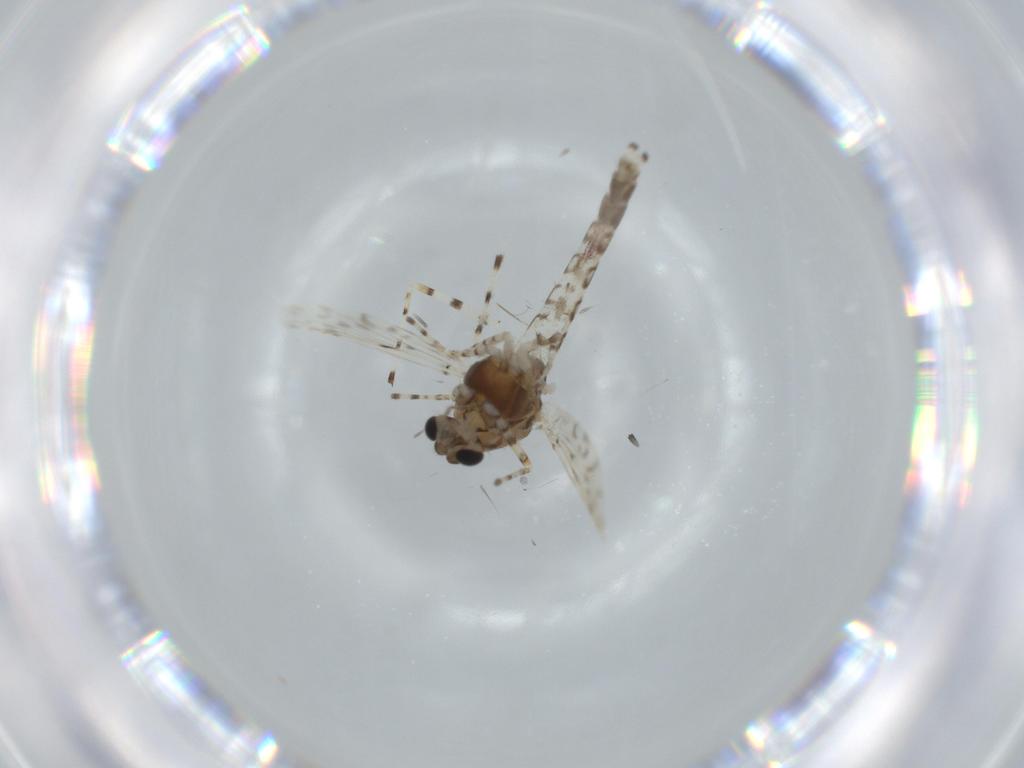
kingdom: Animalia
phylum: Arthropoda
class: Insecta
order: Diptera
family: Chironomidae
